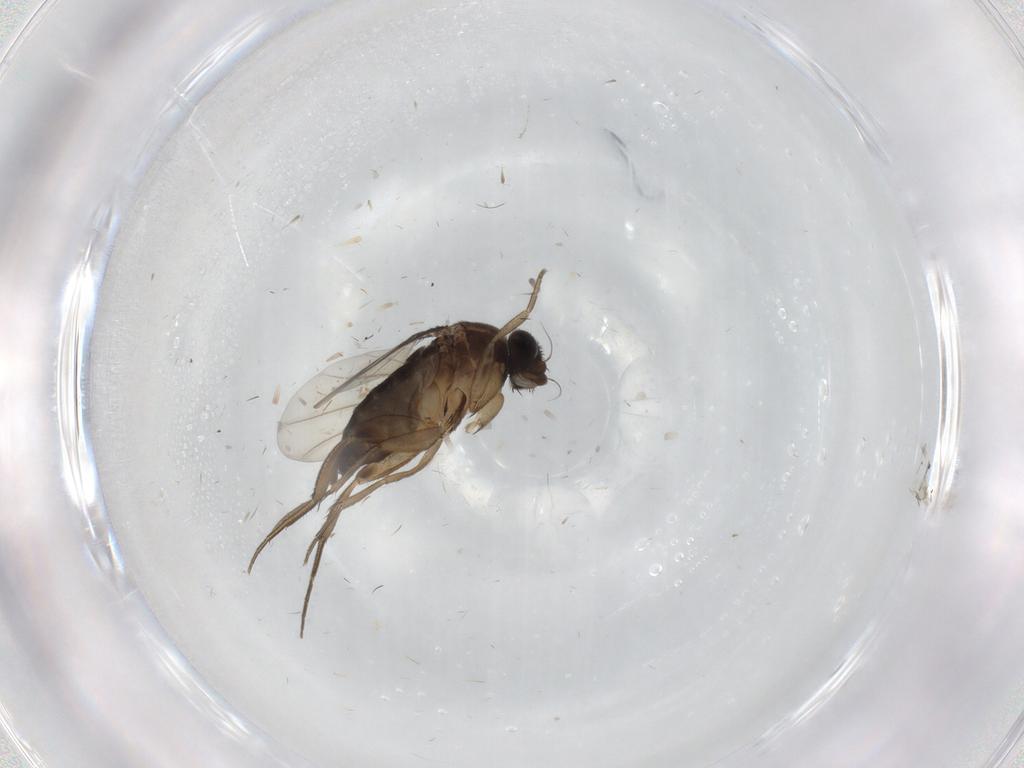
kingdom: Animalia
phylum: Arthropoda
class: Insecta
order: Diptera
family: Phoridae
